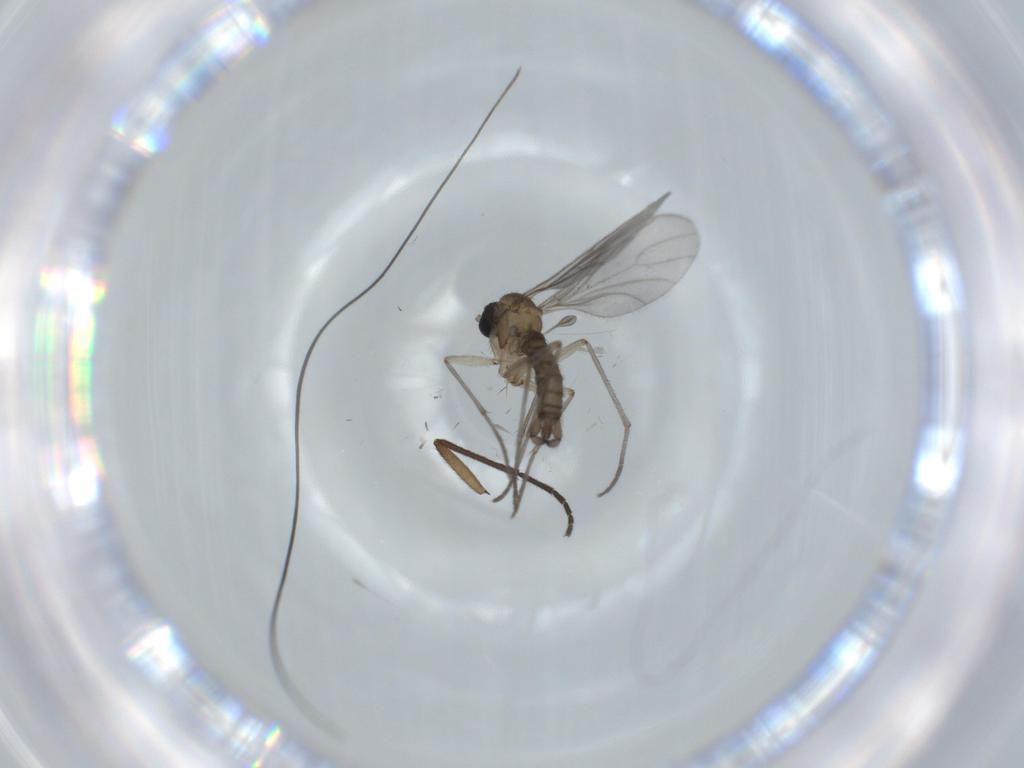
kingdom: Animalia
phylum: Arthropoda
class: Insecta
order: Diptera
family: Sciaridae
